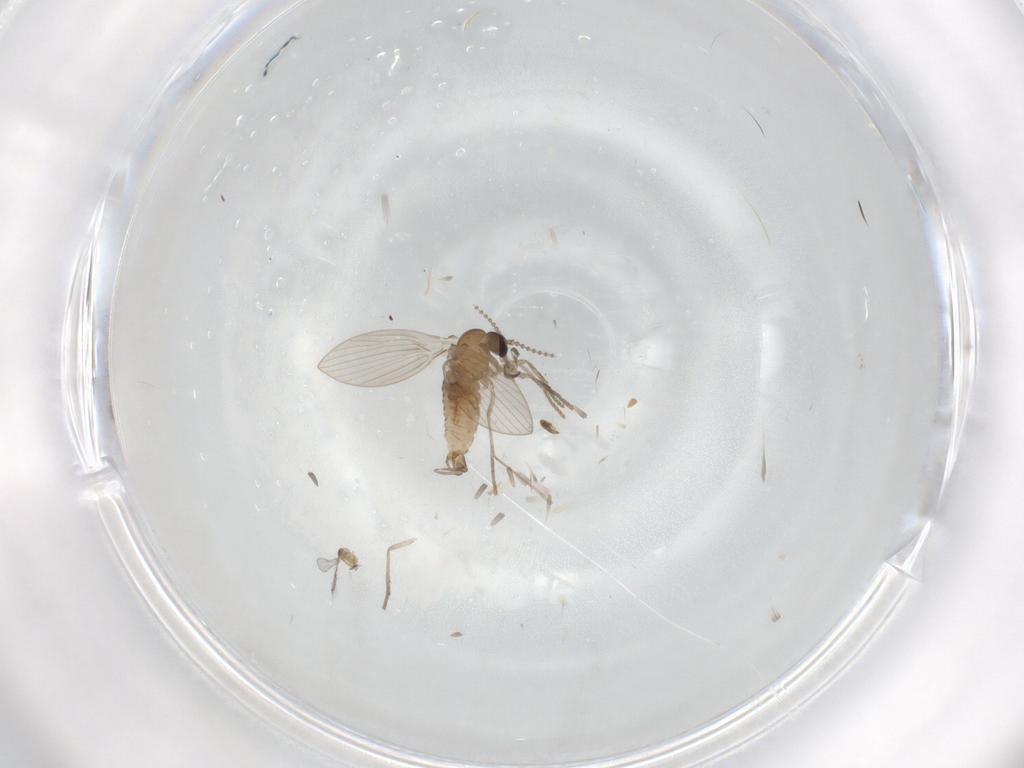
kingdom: Animalia
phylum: Arthropoda
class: Insecta
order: Diptera
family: Psychodidae
